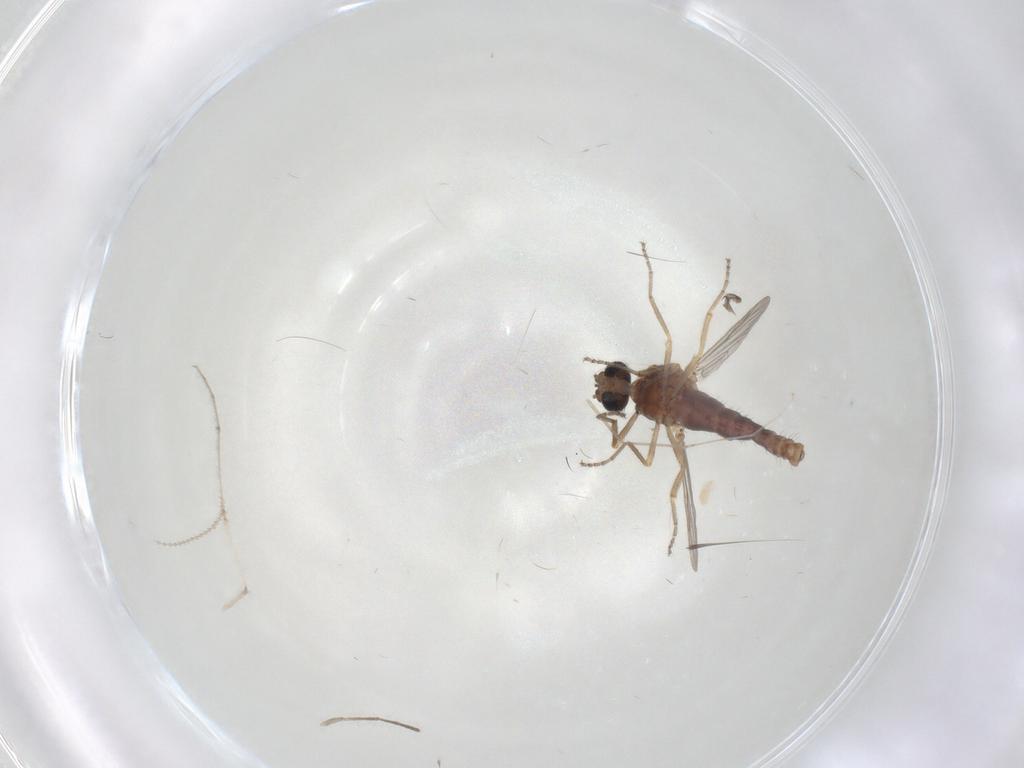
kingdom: Animalia
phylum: Arthropoda
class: Insecta
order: Diptera
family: Ceratopogonidae
